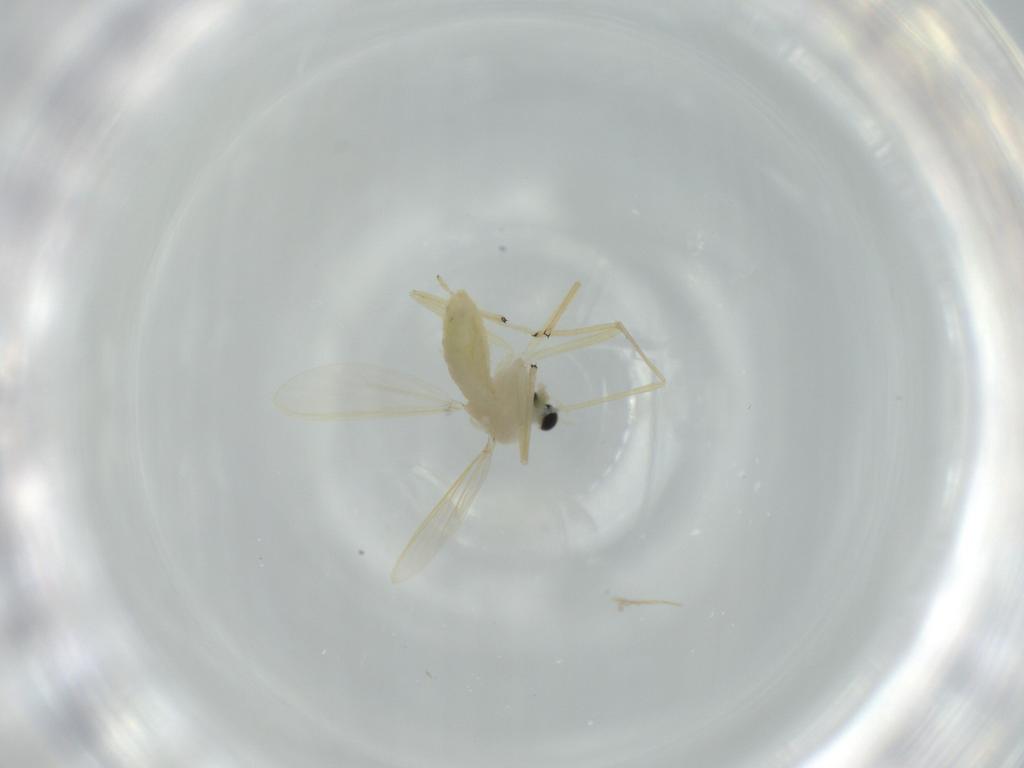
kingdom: Animalia
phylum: Arthropoda
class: Insecta
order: Diptera
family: Chironomidae
